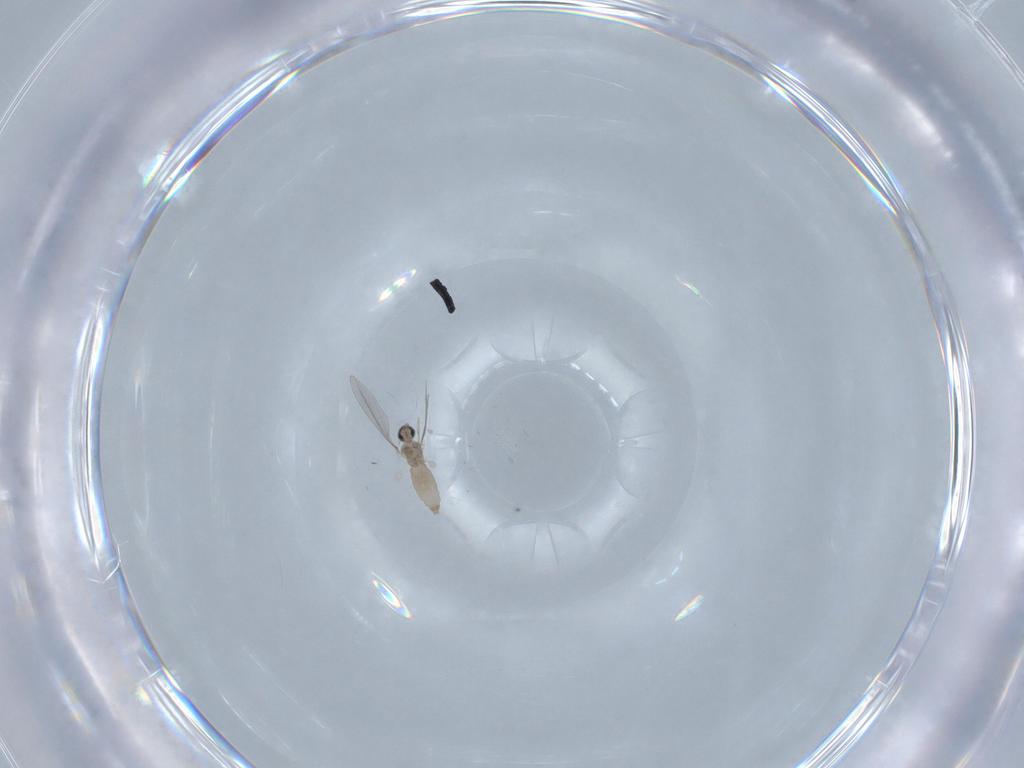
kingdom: Animalia
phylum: Arthropoda
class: Insecta
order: Diptera
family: Cecidomyiidae
